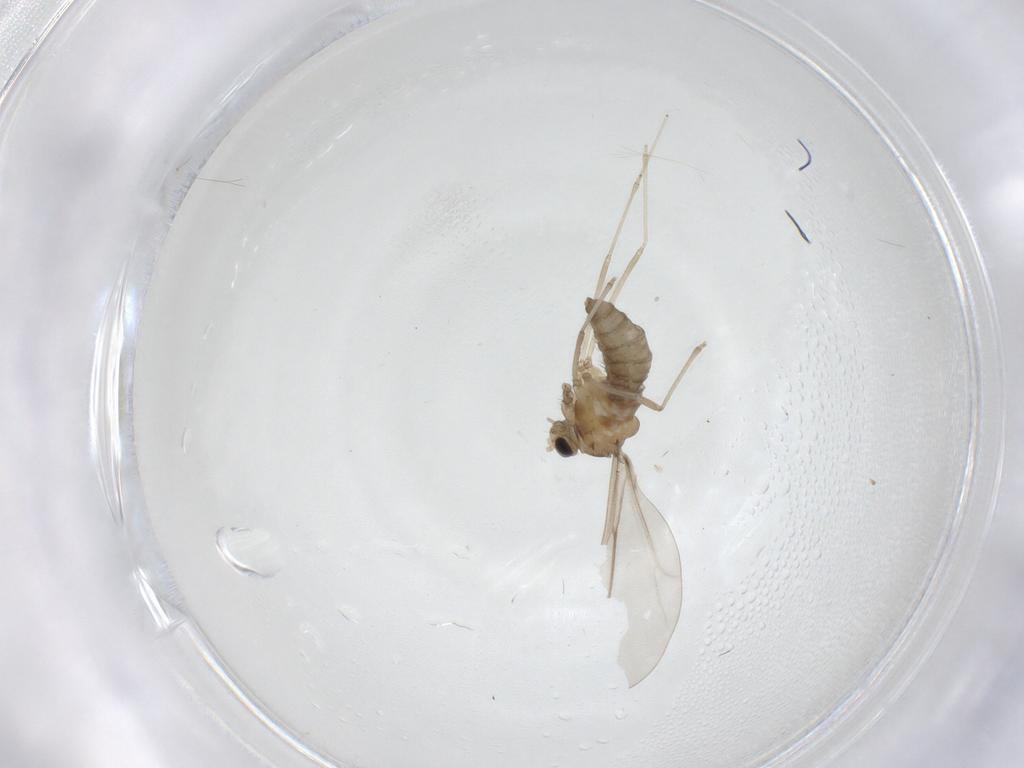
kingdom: Animalia
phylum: Arthropoda
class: Insecta
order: Diptera
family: Cecidomyiidae
